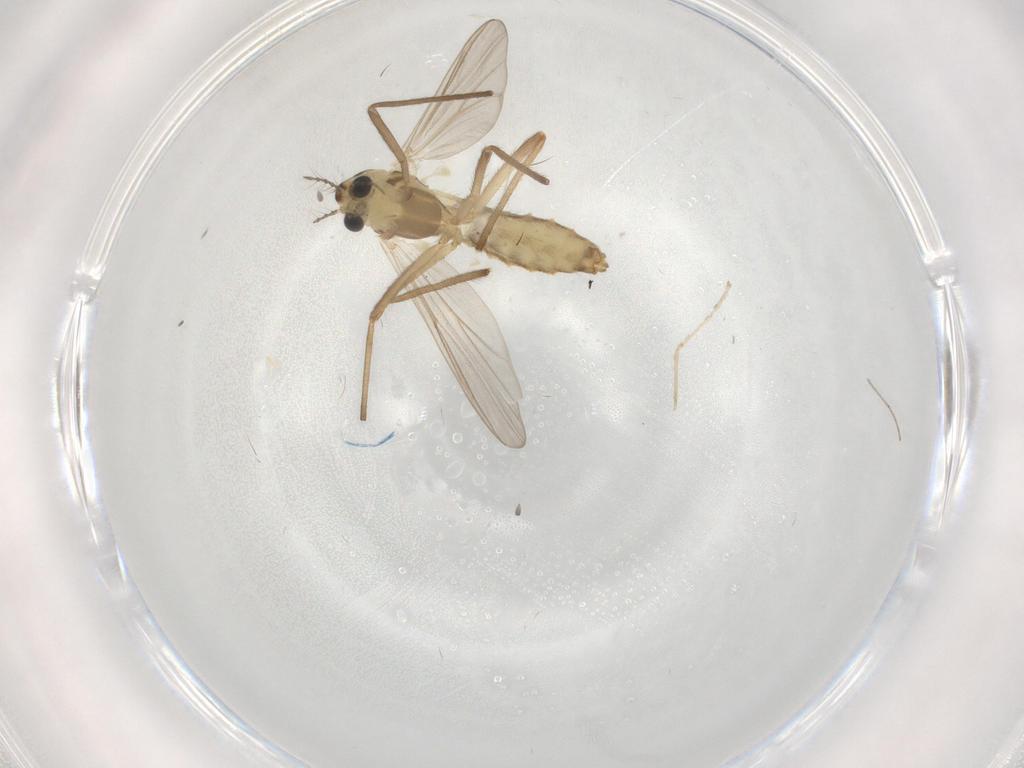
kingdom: Animalia
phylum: Arthropoda
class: Insecta
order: Diptera
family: Chironomidae
